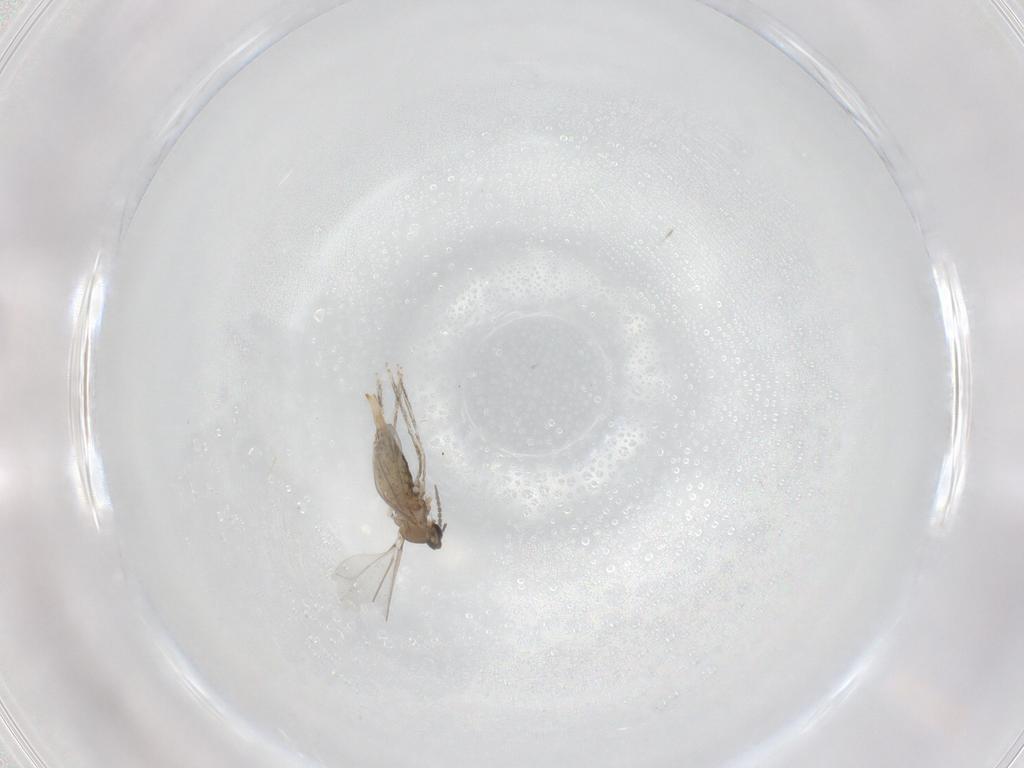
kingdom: Animalia
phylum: Arthropoda
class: Insecta
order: Diptera
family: Cecidomyiidae
